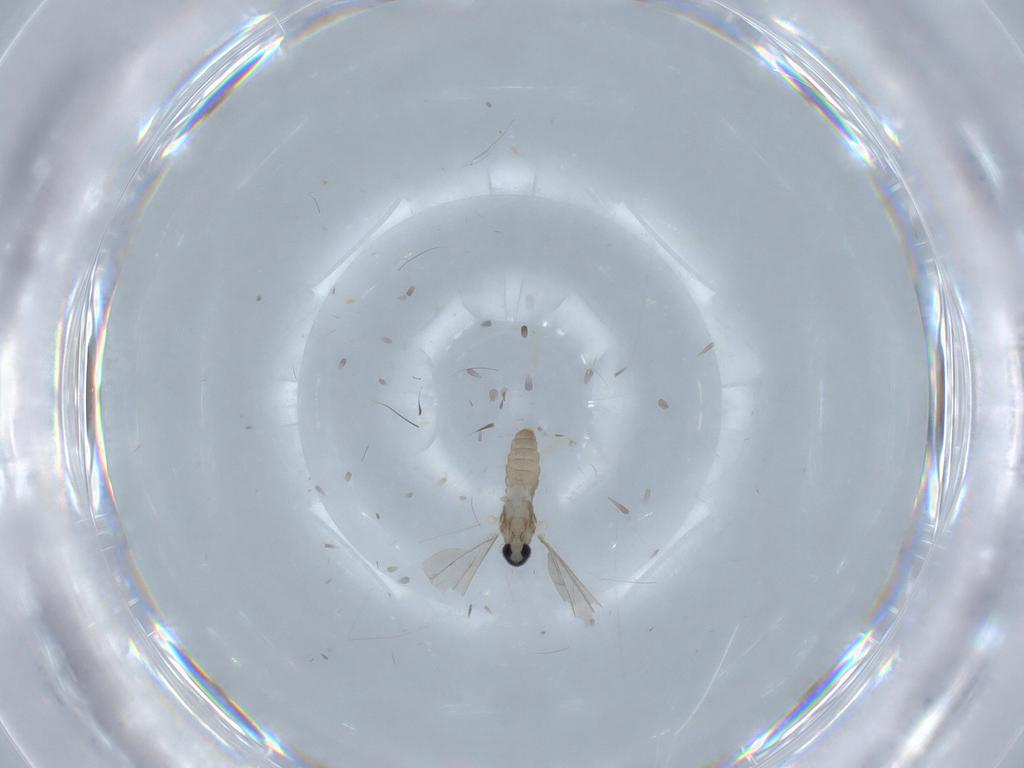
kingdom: Animalia
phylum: Arthropoda
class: Insecta
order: Diptera
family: Cecidomyiidae
